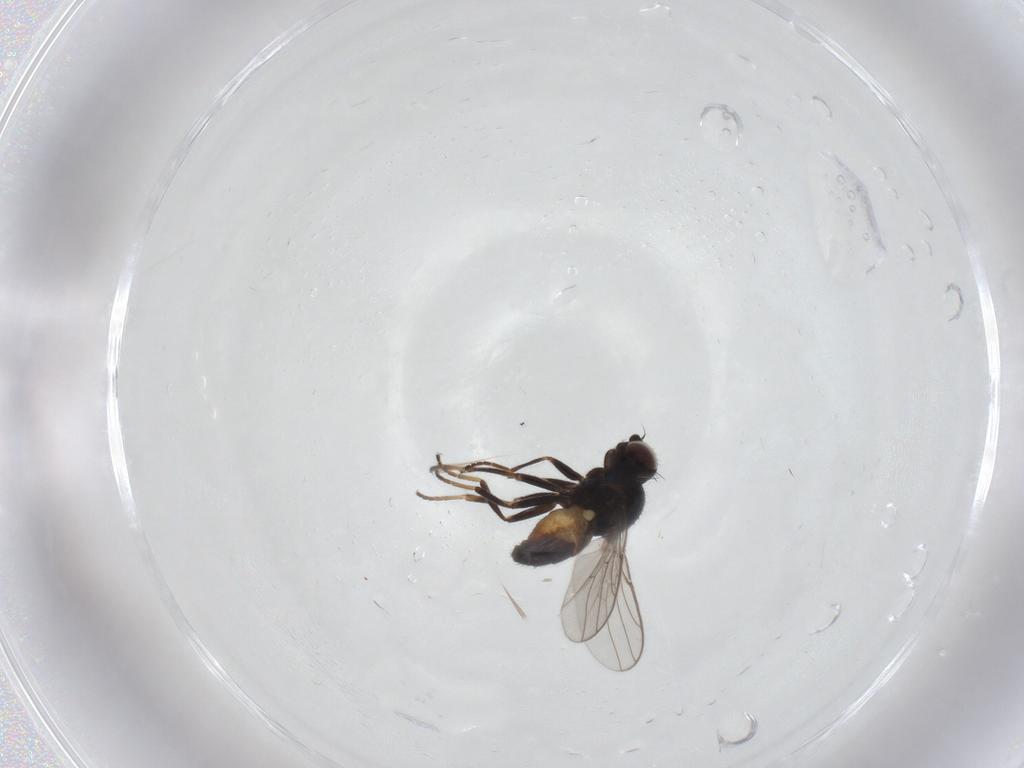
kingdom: Animalia
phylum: Arthropoda
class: Insecta
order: Diptera
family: Chloropidae
